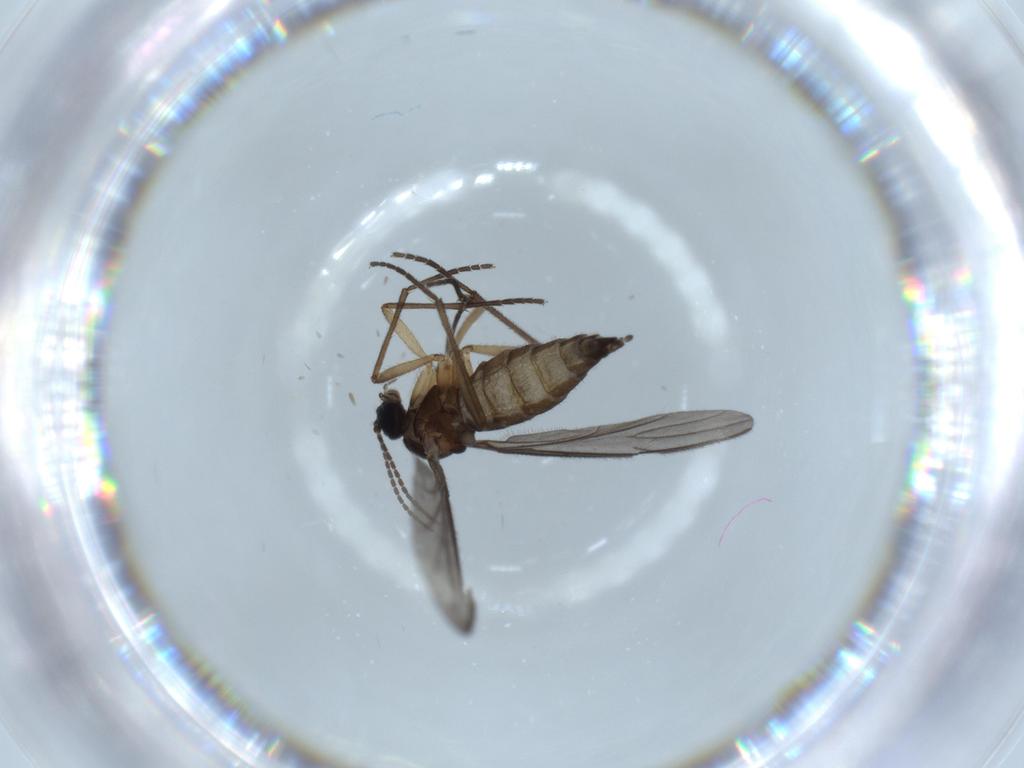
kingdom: Animalia
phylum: Arthropoda
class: Insecta
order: Diptera
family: Sciaridae
